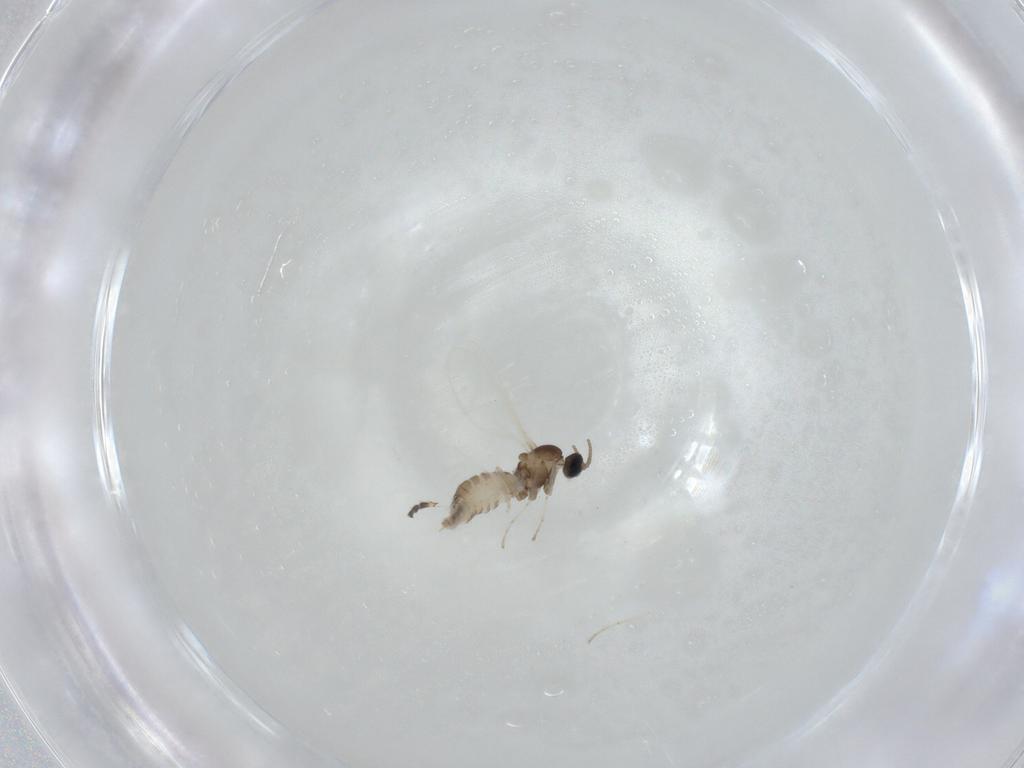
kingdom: Animalia
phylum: Arthropoda
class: Insecta
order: Diptera
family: Cecidomyiidae
